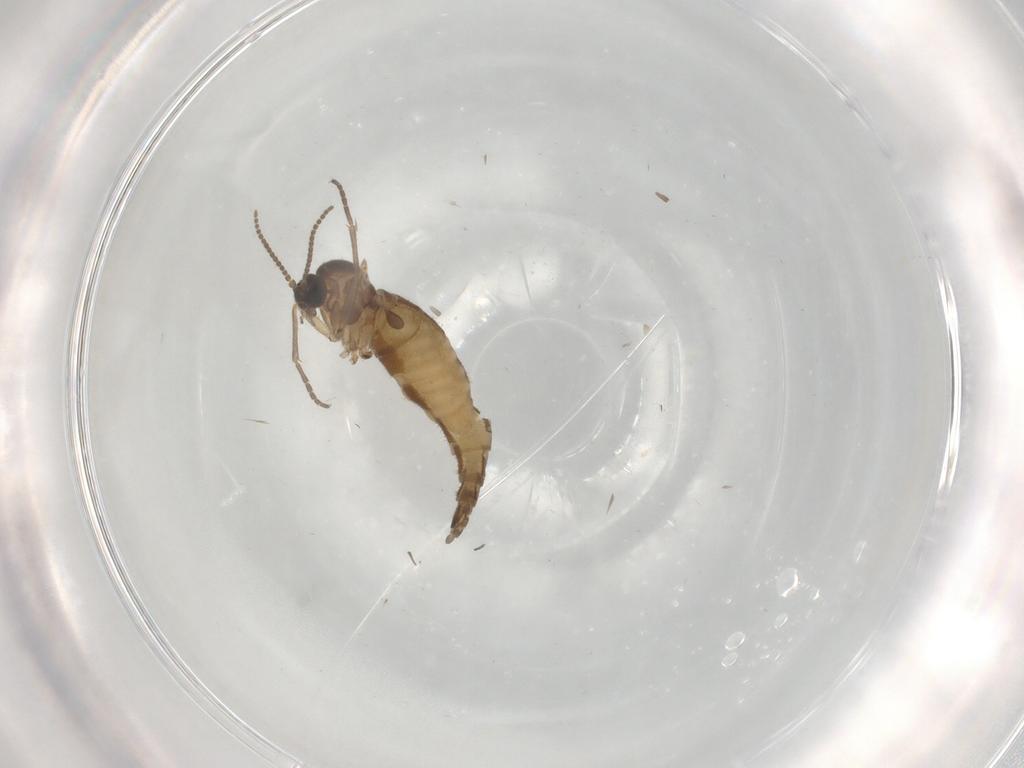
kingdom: Animalia
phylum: Arthropoda
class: Insecta
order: Diptera
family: Sciaridae
